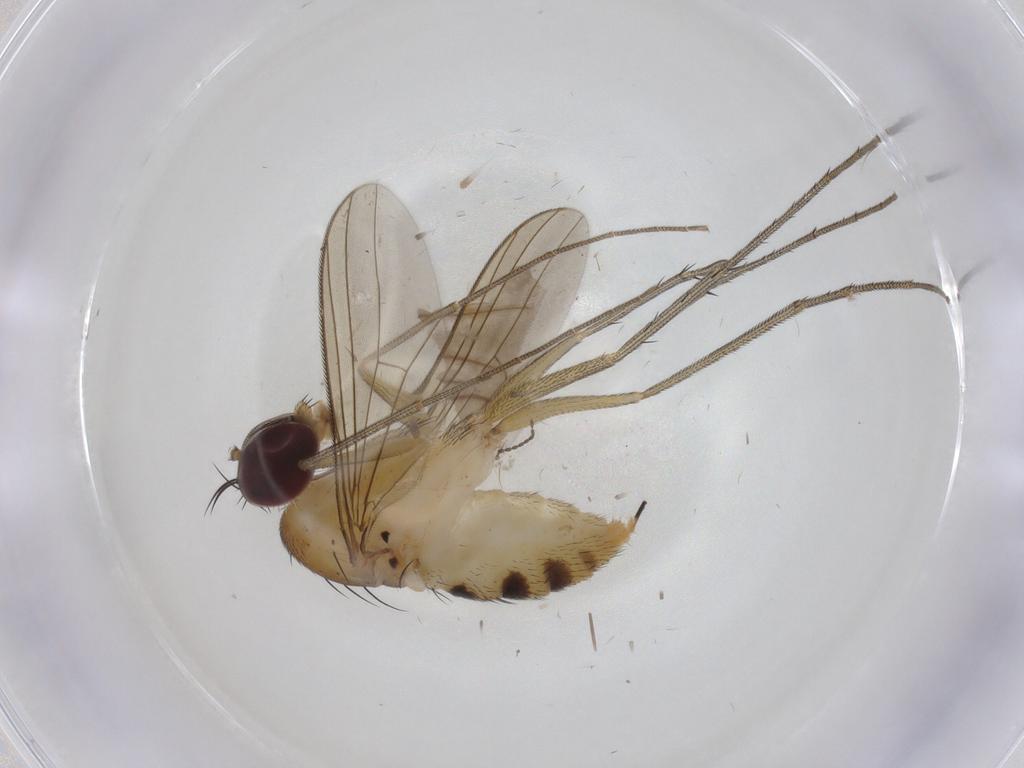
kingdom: Animalia
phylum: Arthropoda
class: Insecta
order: Diptera
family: Cecidomyiidae
